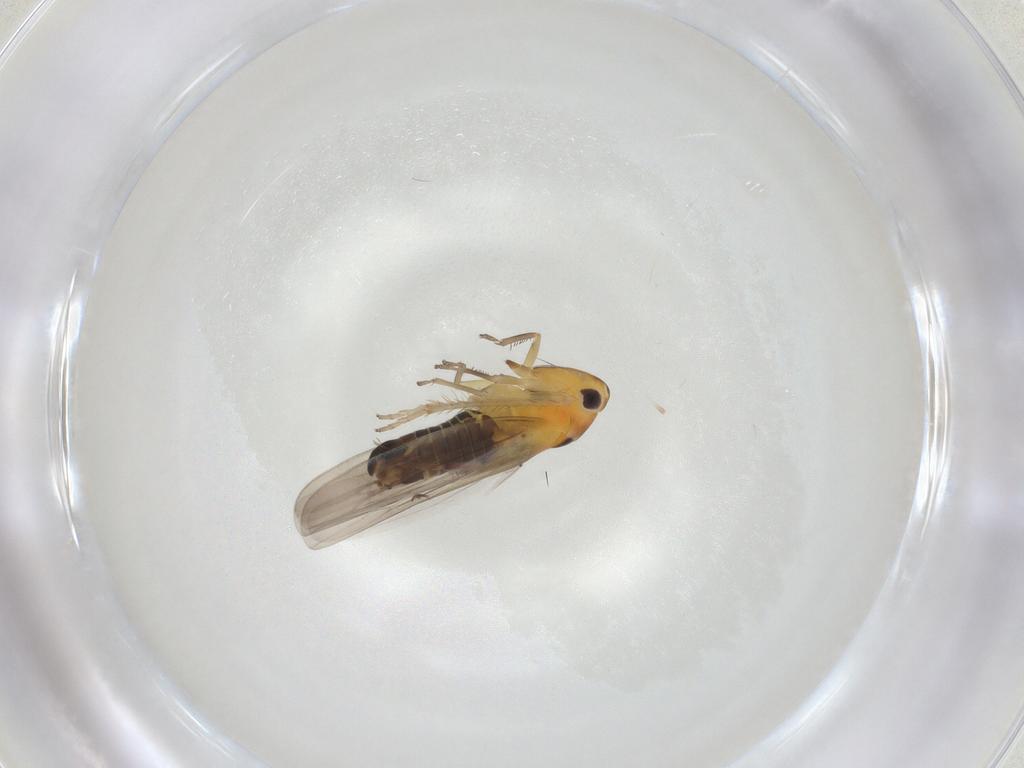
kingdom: Animalia
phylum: Arthropoda
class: Insecta
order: Hemiptera
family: Cicadellidae
